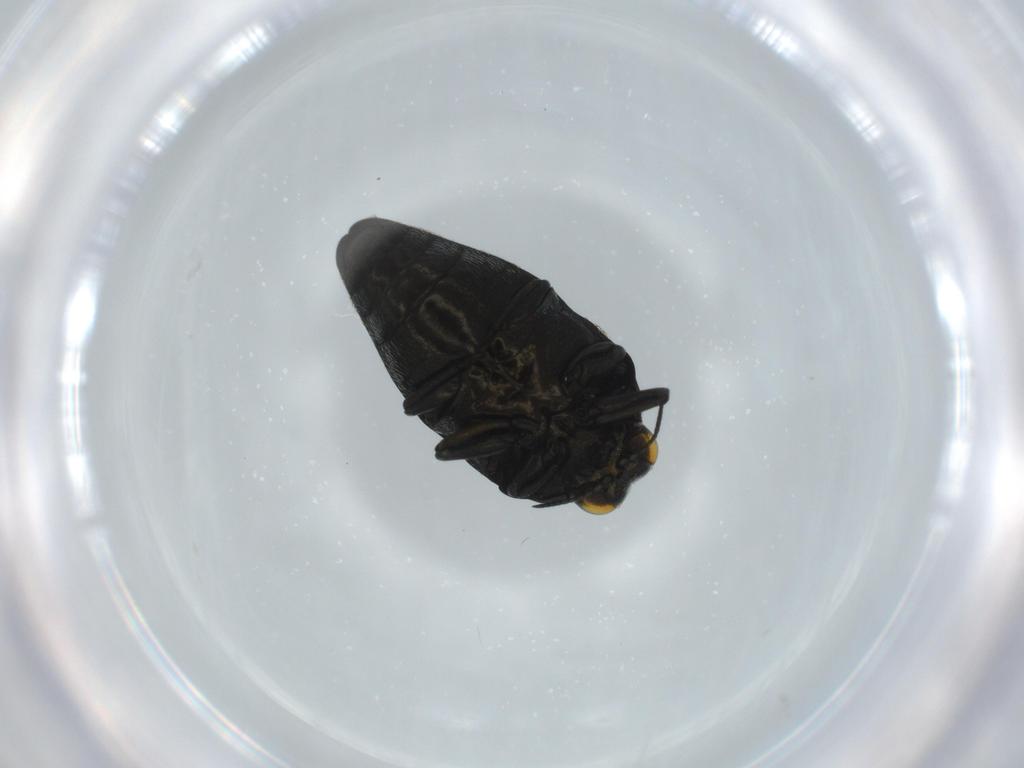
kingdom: Animalia
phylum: Arthropoda
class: Insecta
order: Coleoptera
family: Buprestidae
